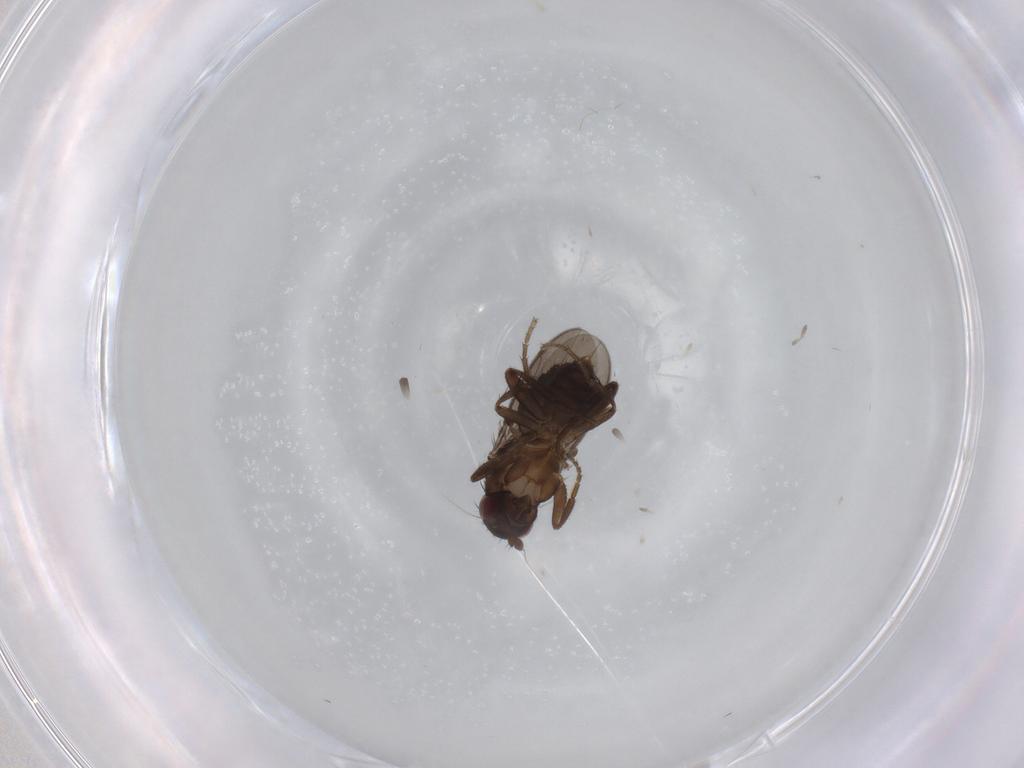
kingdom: Animalia
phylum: Arthropoda
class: Insecta
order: Diptera
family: Sphaeroceridae
